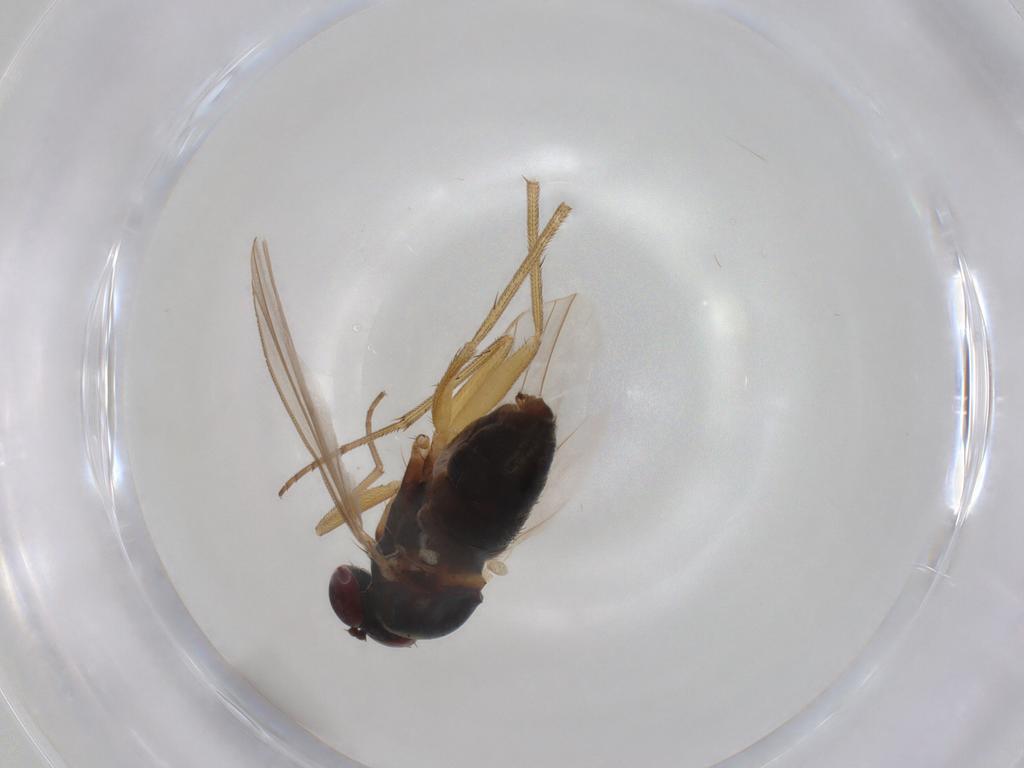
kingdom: Animalia
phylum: Arthropoda
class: Insecta
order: Diptera
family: Dolichopodidae
